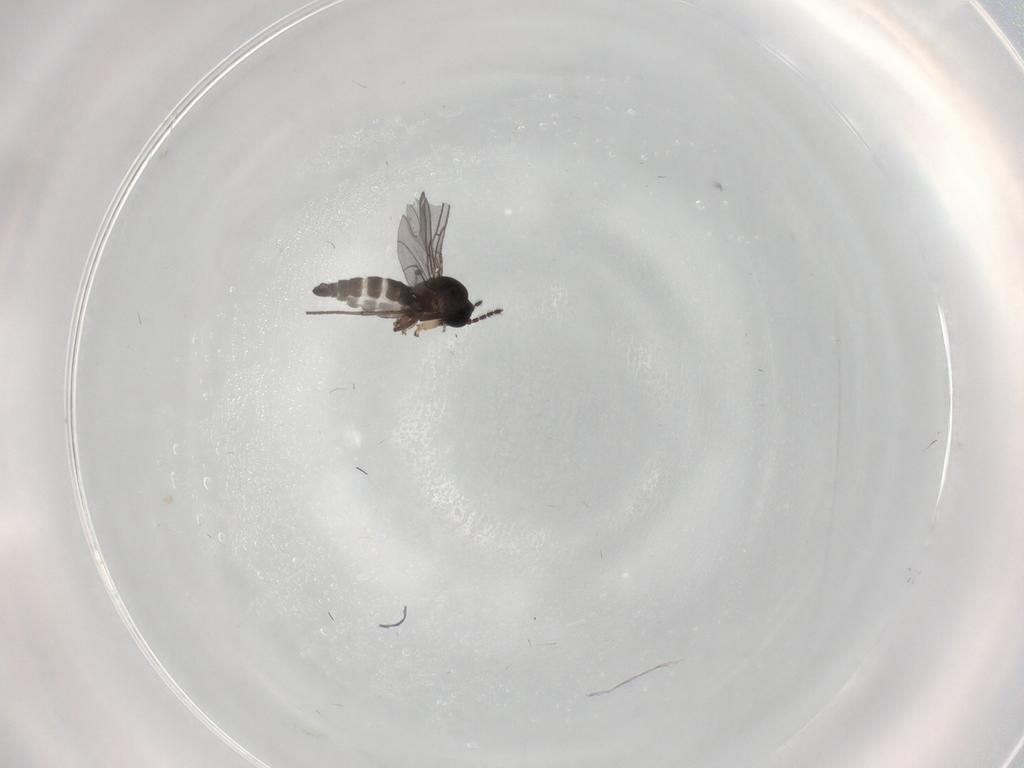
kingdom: Animalia
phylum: Arthropoda
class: Insecta
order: Diptera
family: Sciaridae
